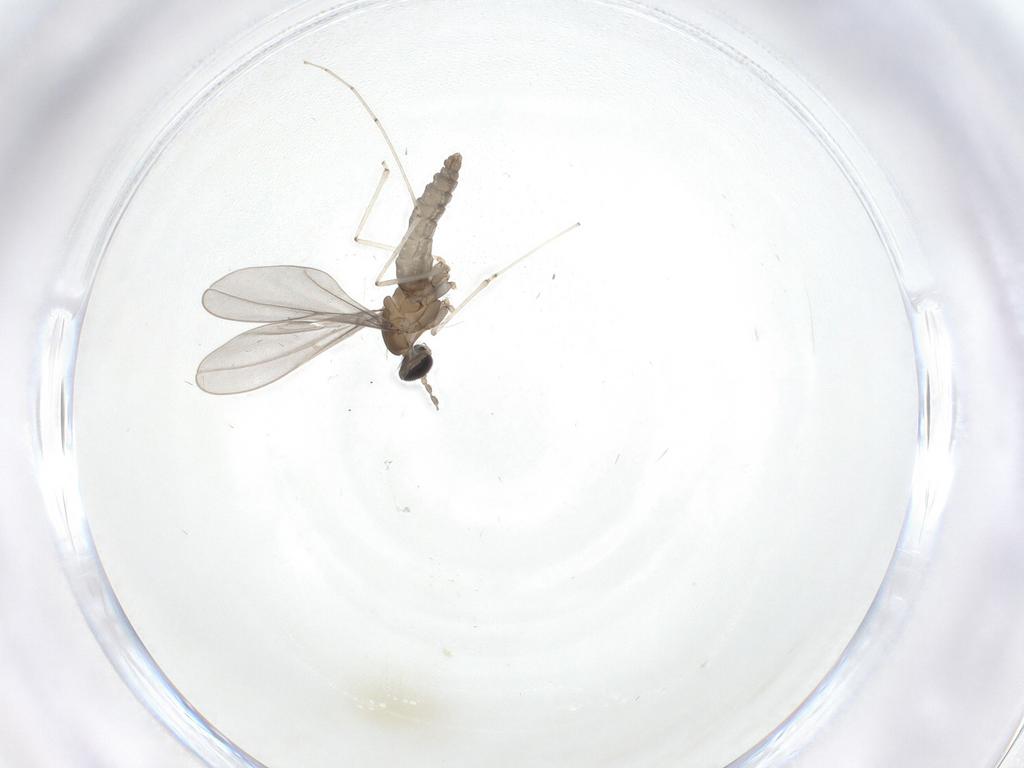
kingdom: Animalia
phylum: Arthropoda
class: Insecta
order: Diptera
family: Cecidomyiidae
